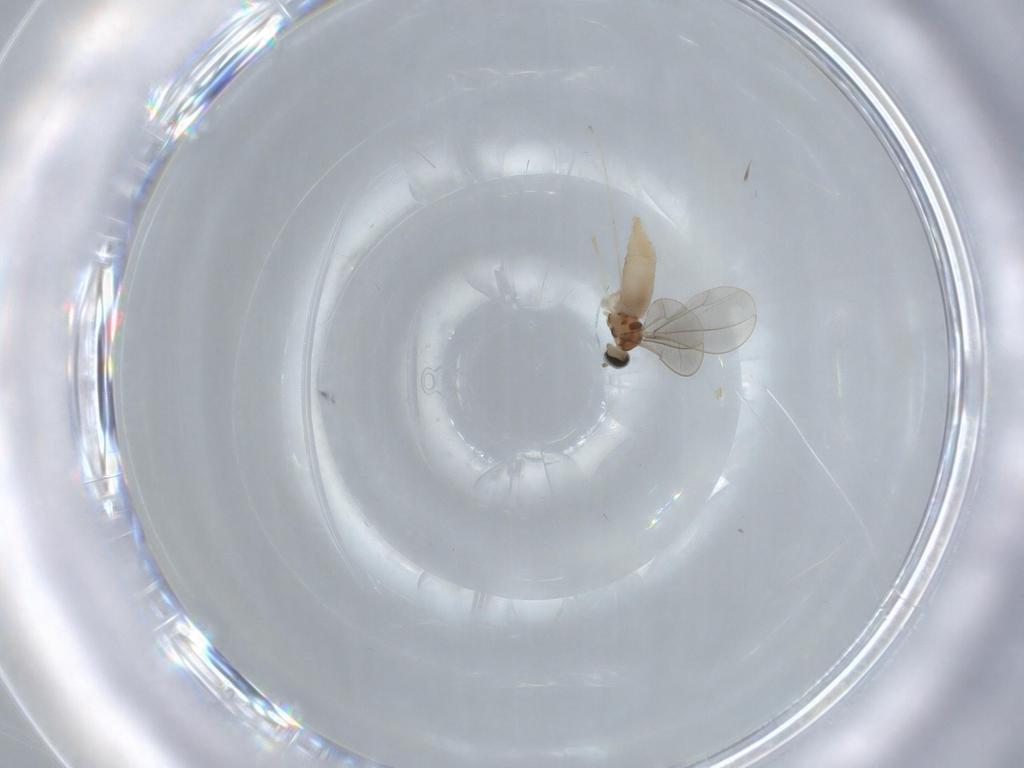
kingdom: Animalia
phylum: Arthropoda
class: Insecta
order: Diptera
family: Cecidomyiidae
